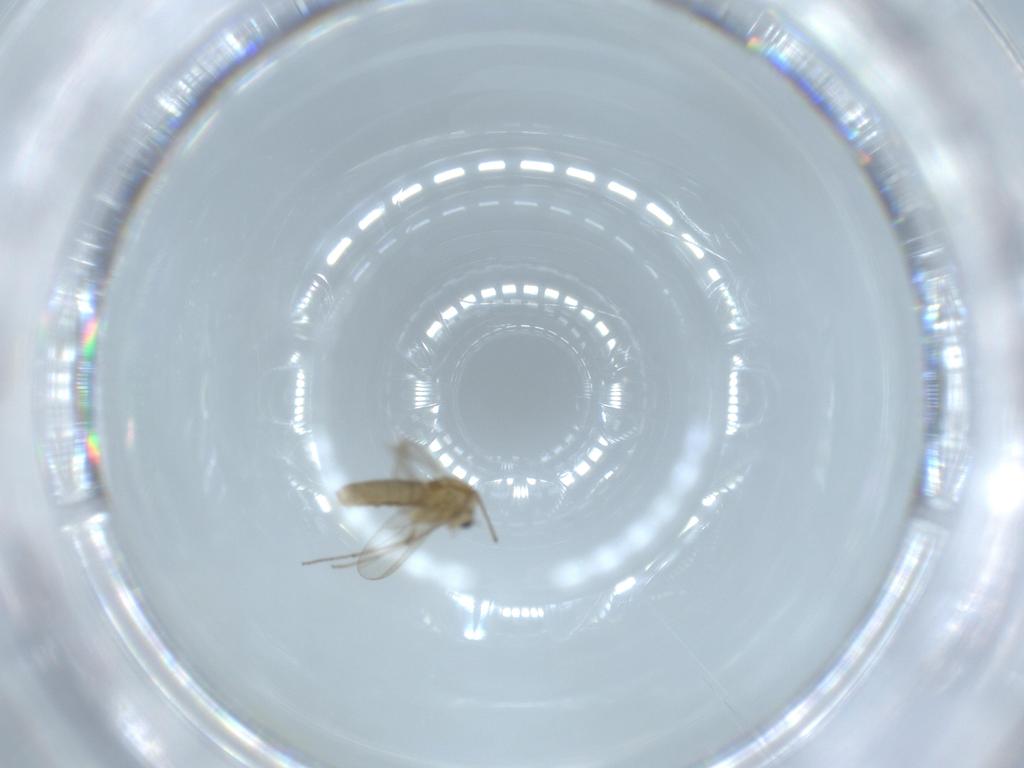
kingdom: Animalia
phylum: Arthropoda
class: Insecta
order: Diptera
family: Chironomidae
